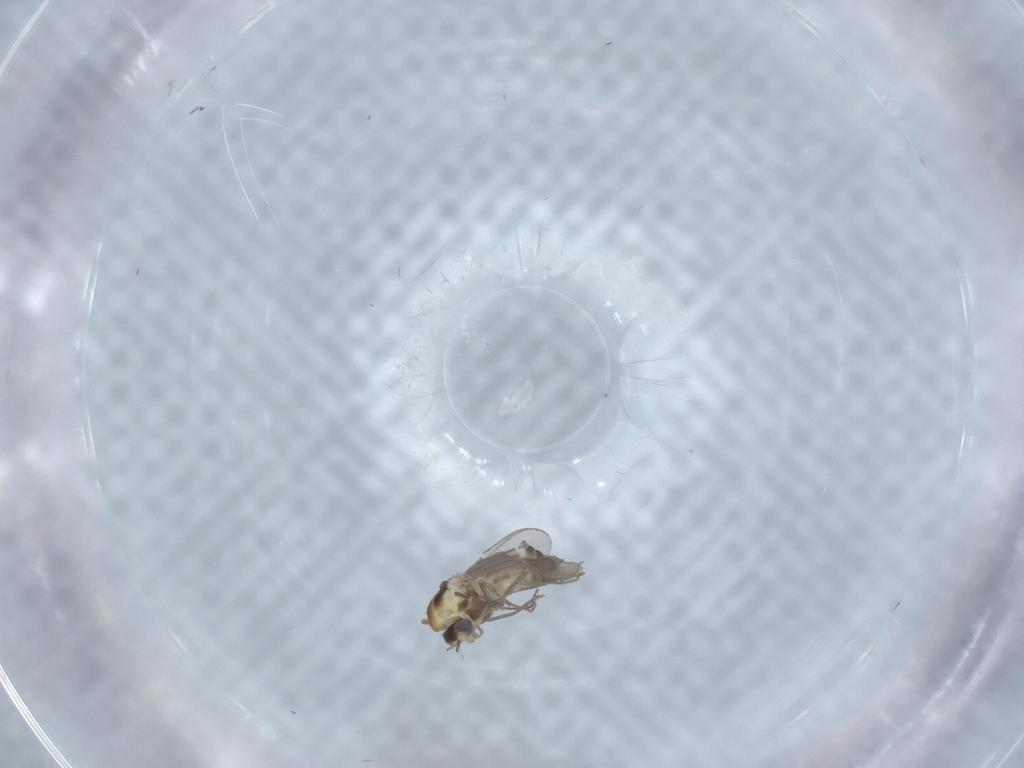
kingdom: Animalia
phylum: Arthropoda
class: Insecta
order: Diptera
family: Chironomidae
